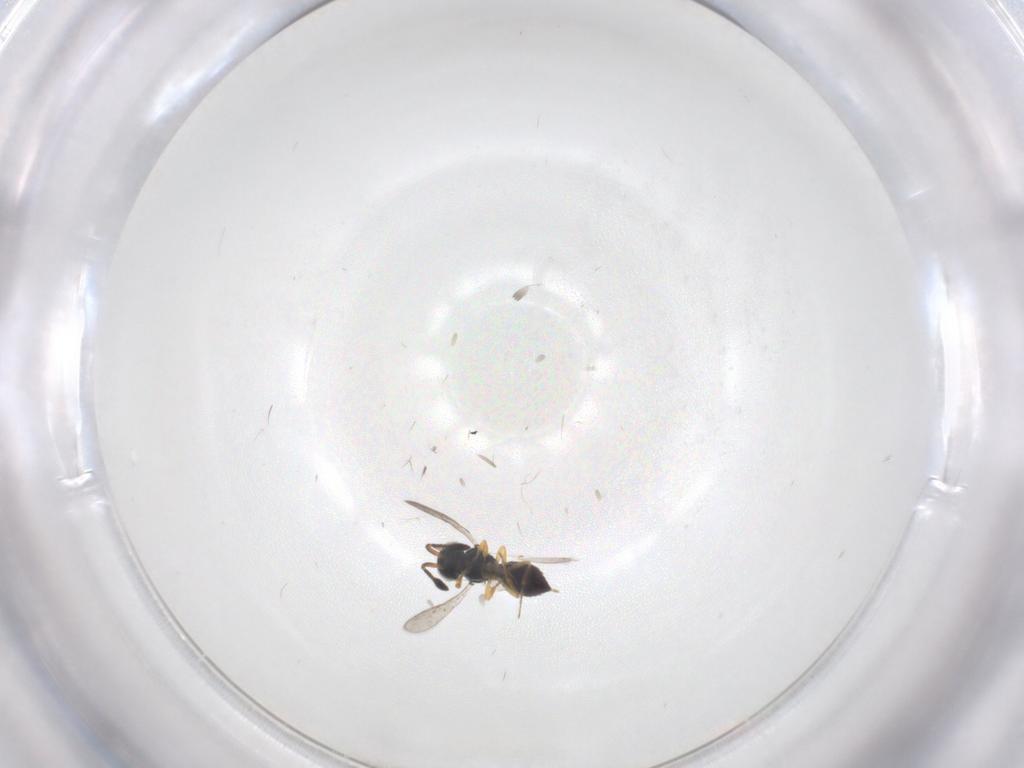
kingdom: Animalia
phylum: Arthropoda
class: Insecta
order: Hymenoptera
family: Scelionidae
